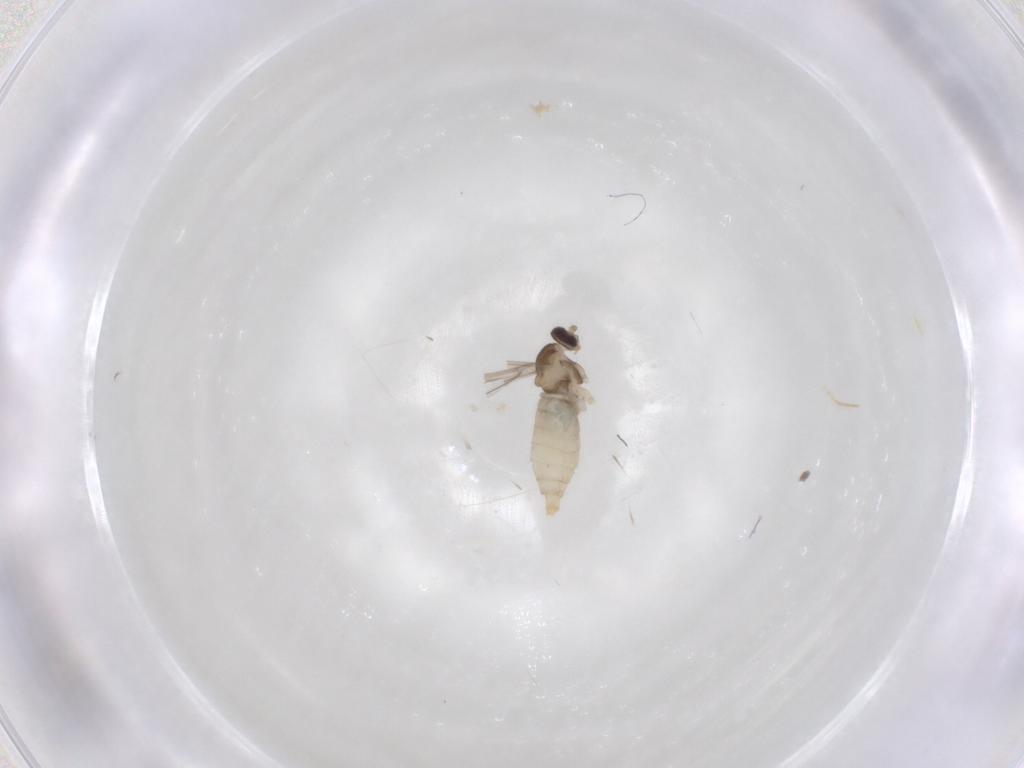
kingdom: Animalia
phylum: Arthropoda
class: Insecta
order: Diptera
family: Cecidomyiidae
